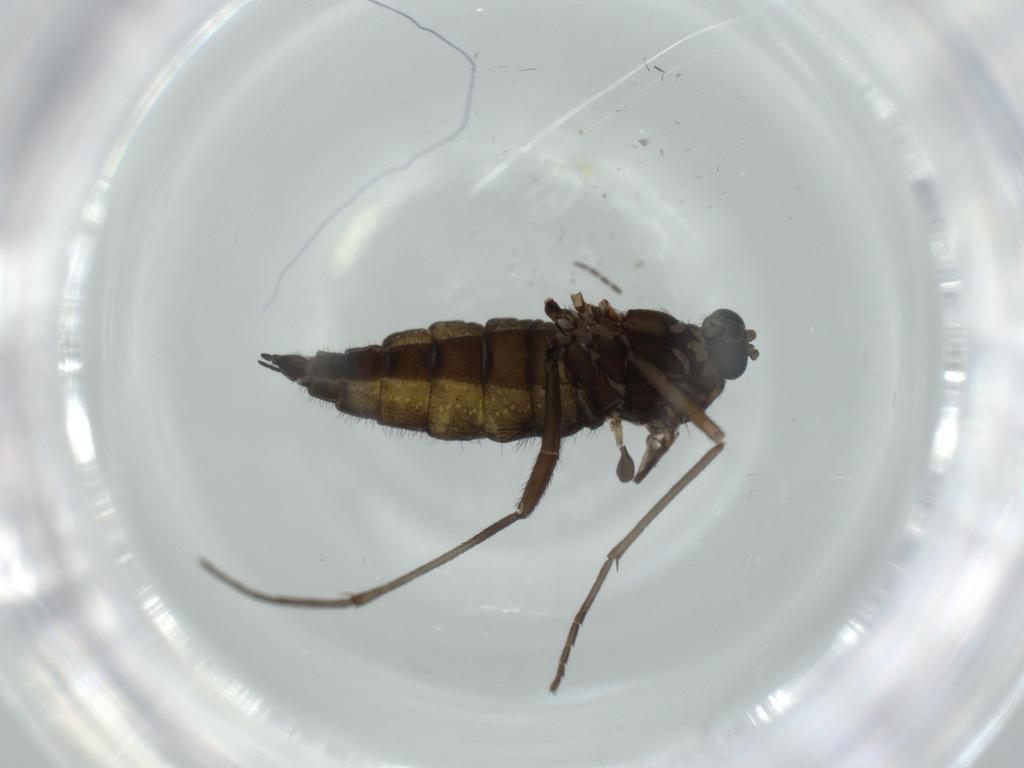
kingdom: Animalia
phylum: Arthropoda
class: Insecta
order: Diptera
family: Sciaridae
